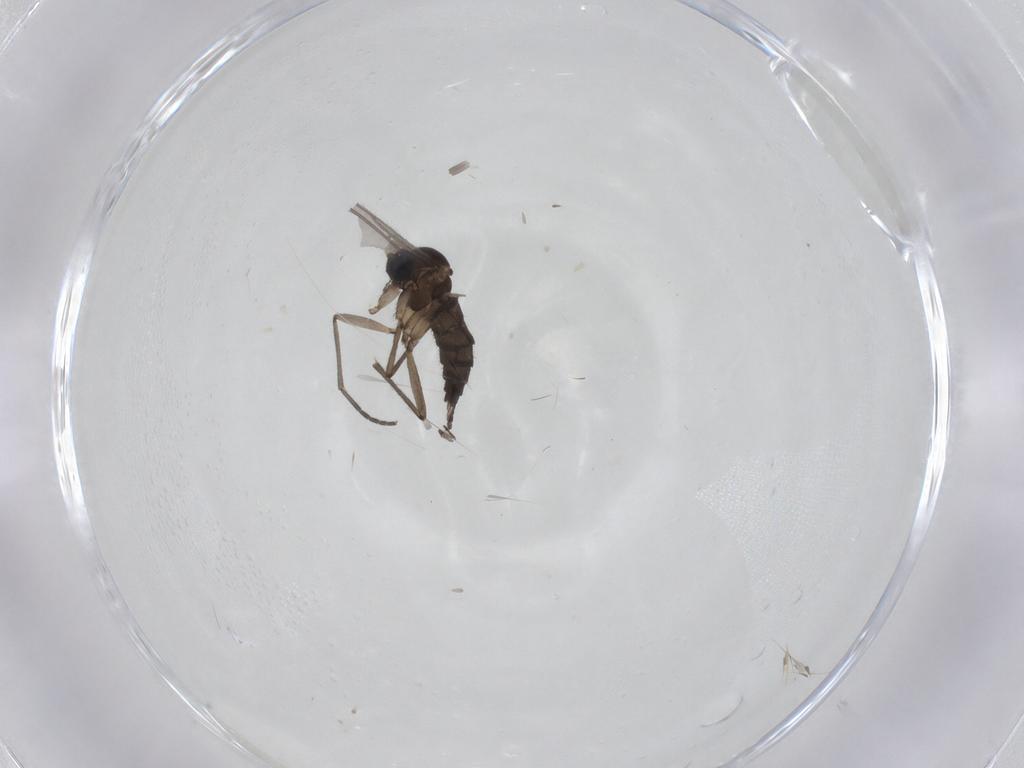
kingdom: Animalia
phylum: Arthropoda
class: Insecta
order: Diptera
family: Sciaridae
